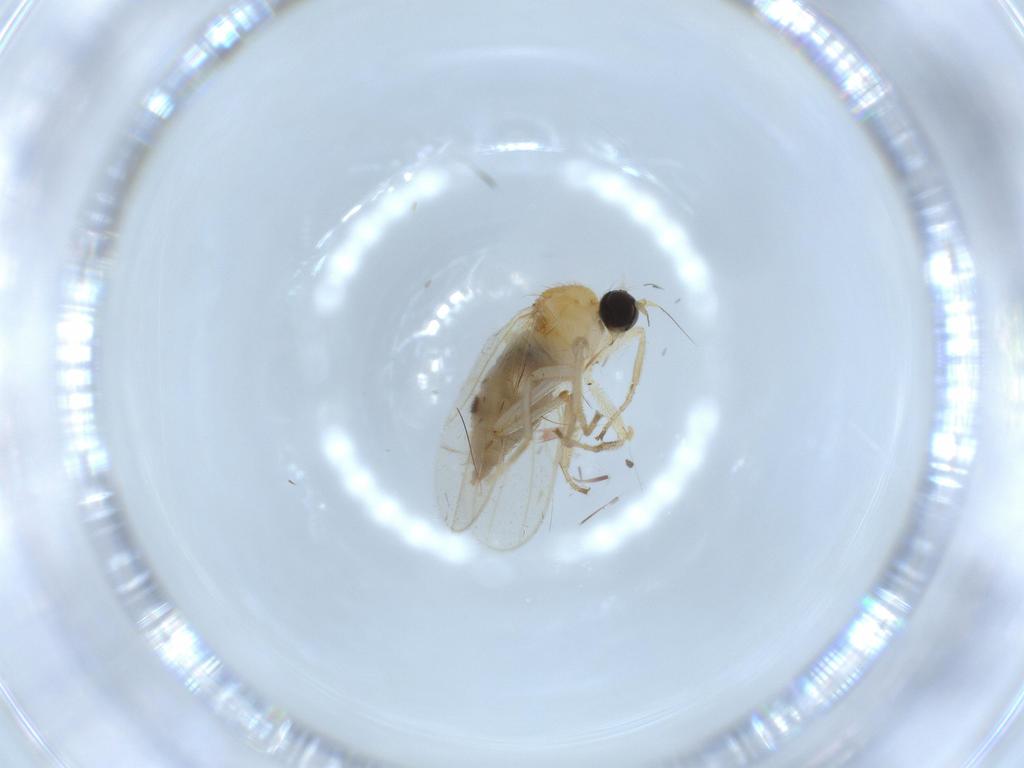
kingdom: Animalia
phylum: Arthropoda
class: Insecta
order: Diptera
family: Hybotidae
